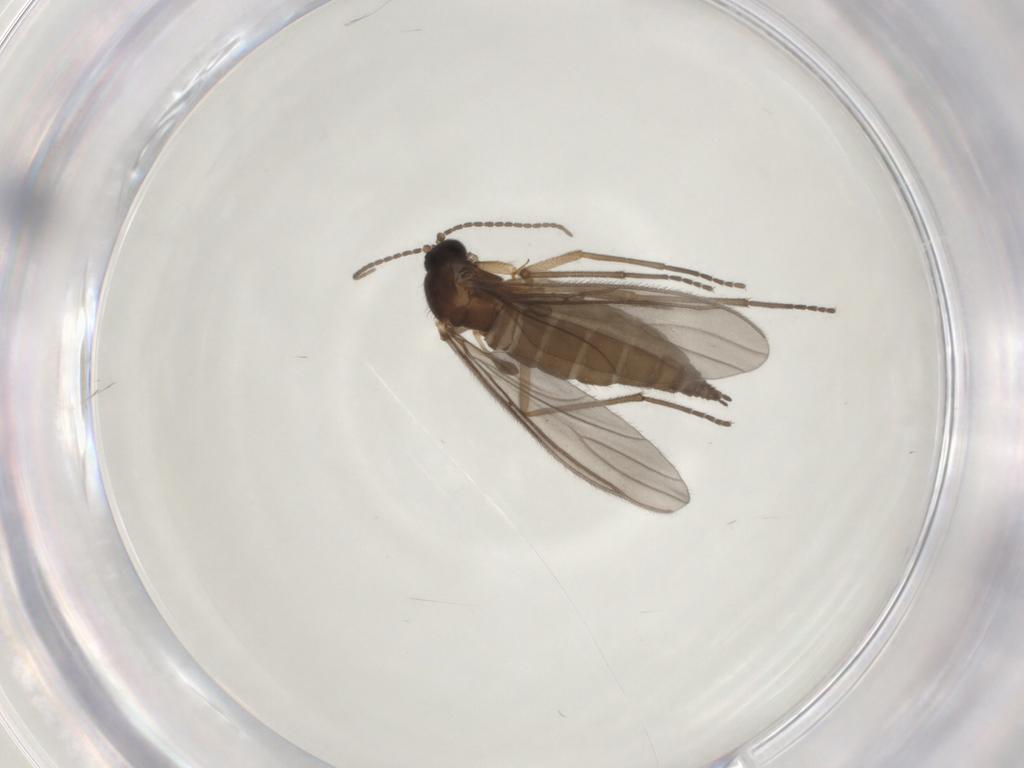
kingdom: Animalia
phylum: Arthropoda
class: Insecta
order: Diptera
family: Sciaridae
